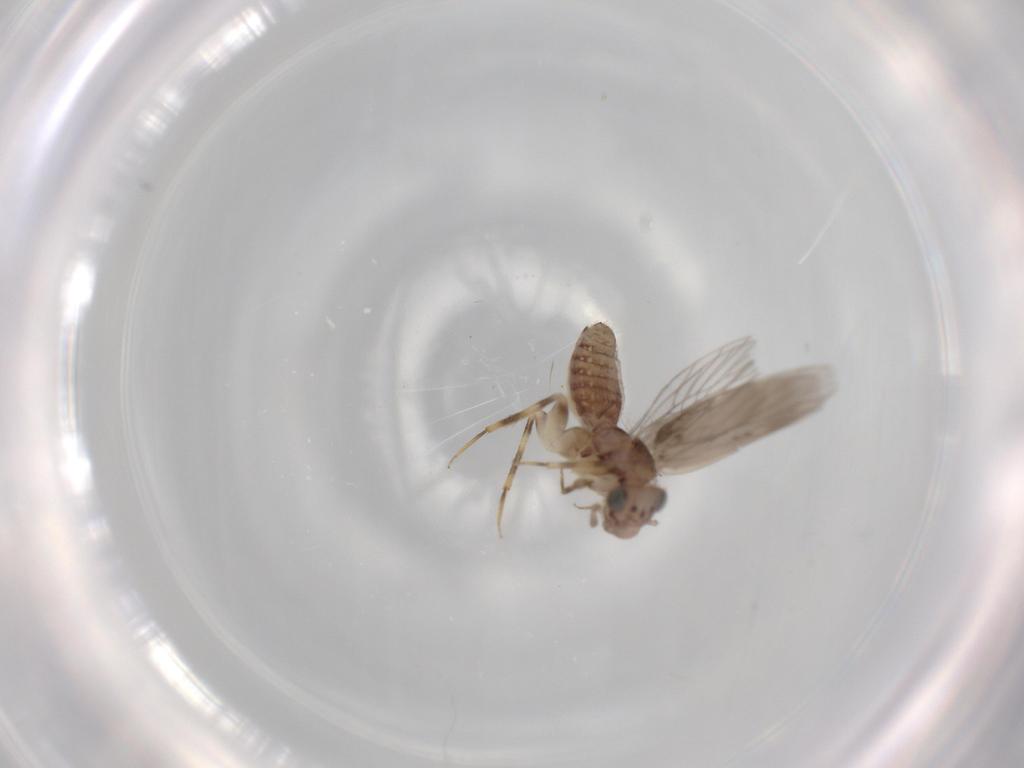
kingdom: Animalia
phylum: Arthropoda
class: Insecta
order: Psocodea
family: Lepidopsocidae
